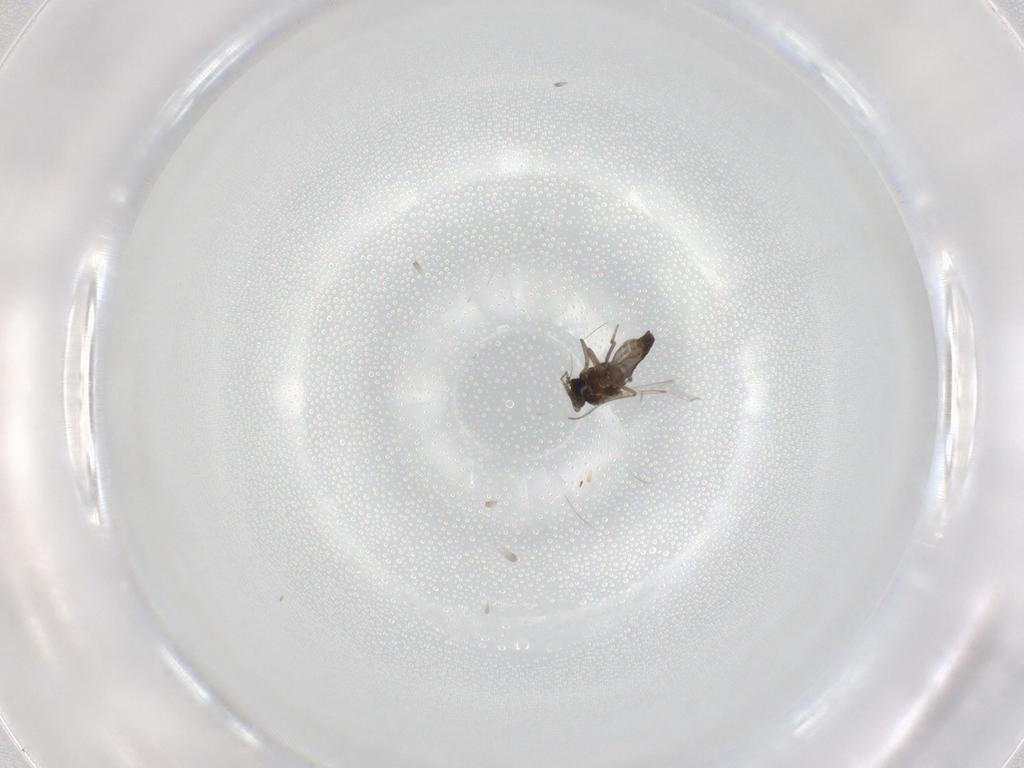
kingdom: Animalia
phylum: Arthropoda
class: Insecta
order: Diptera
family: Ceratopogonidae
